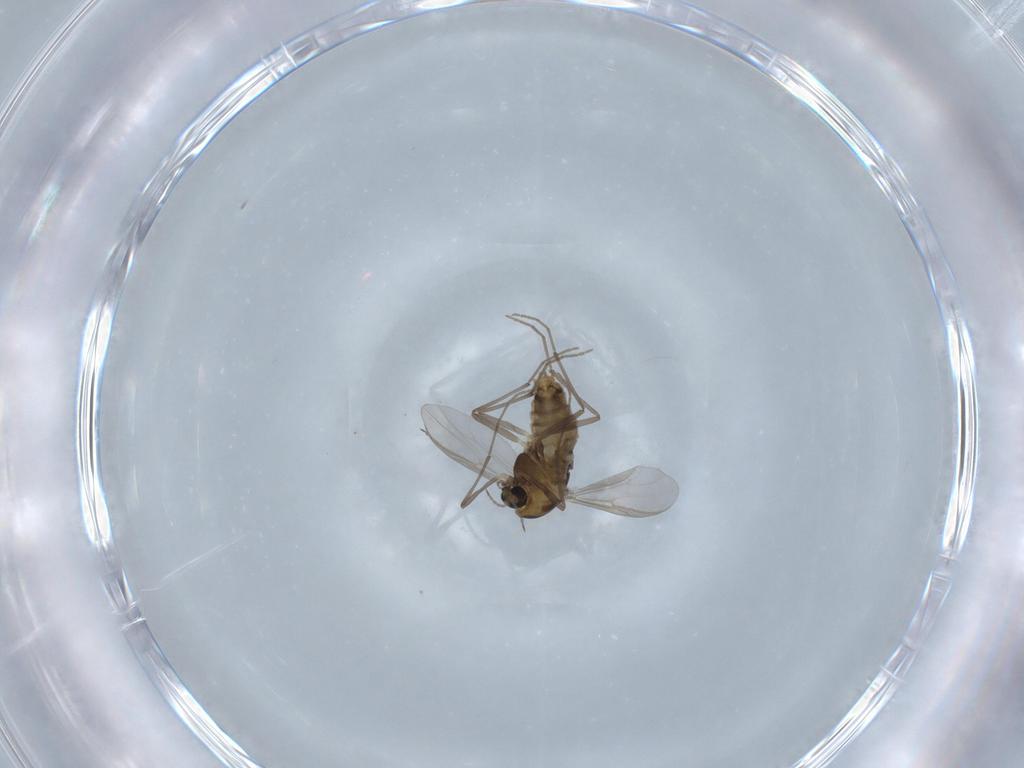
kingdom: Animalia
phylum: Arthropoda
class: Insecta
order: Diptera
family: Chironomidae
